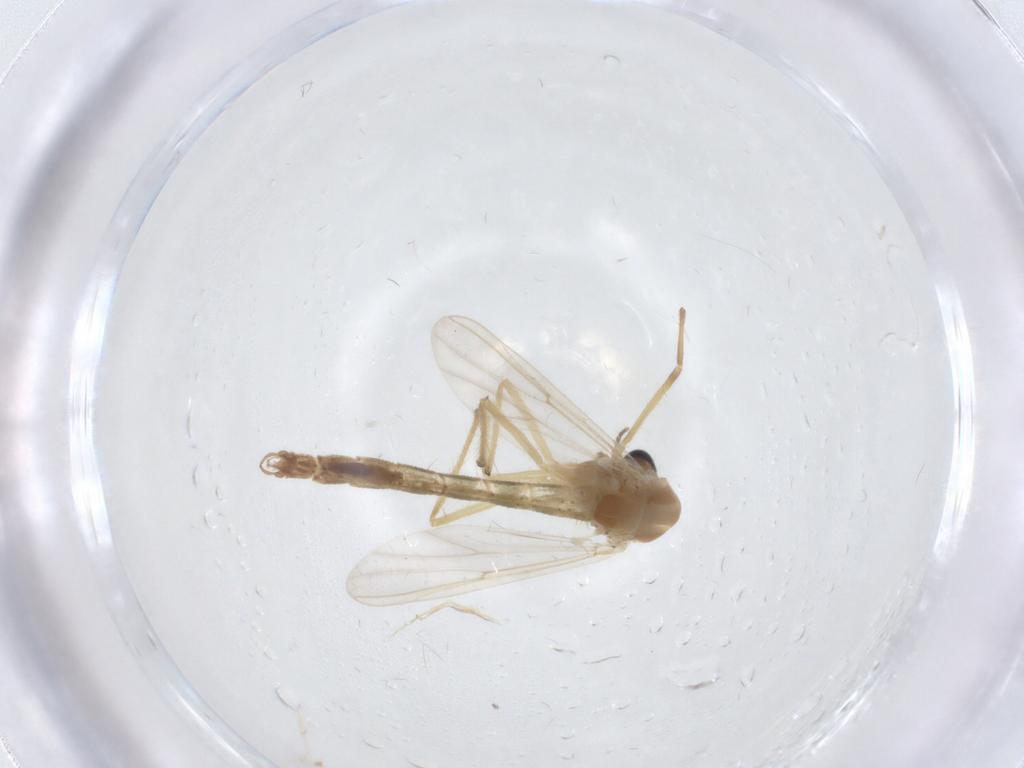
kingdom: Animalia
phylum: Arthropoda
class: Insecta
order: Diptera
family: Chironomidae
